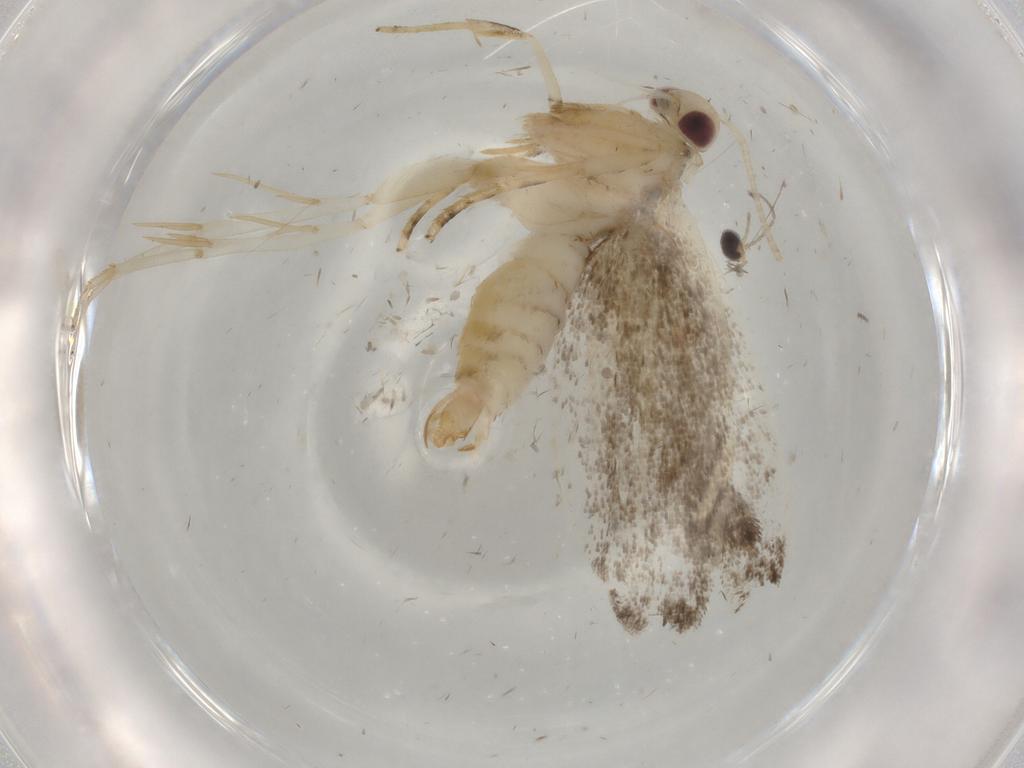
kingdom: Animalia
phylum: Arthropoda
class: Insecta
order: Lepidoptera
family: Gelechiidae
